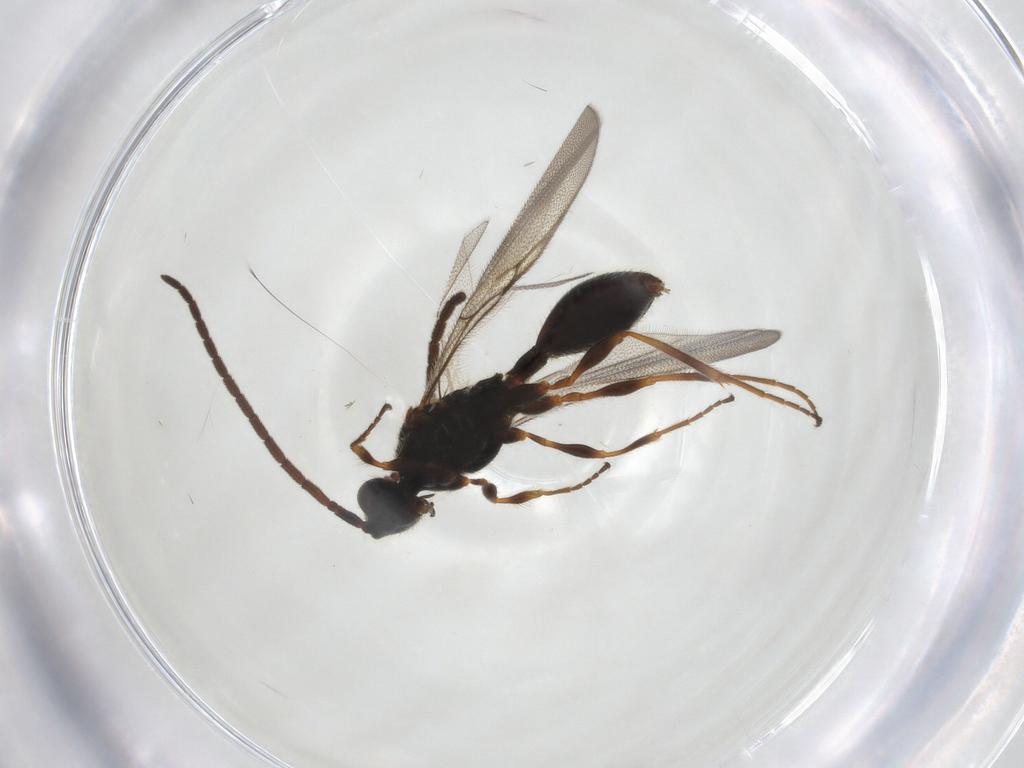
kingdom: Animalia
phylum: Arthropoda
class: Insecta
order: Hymenoptera
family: Diapriidae
